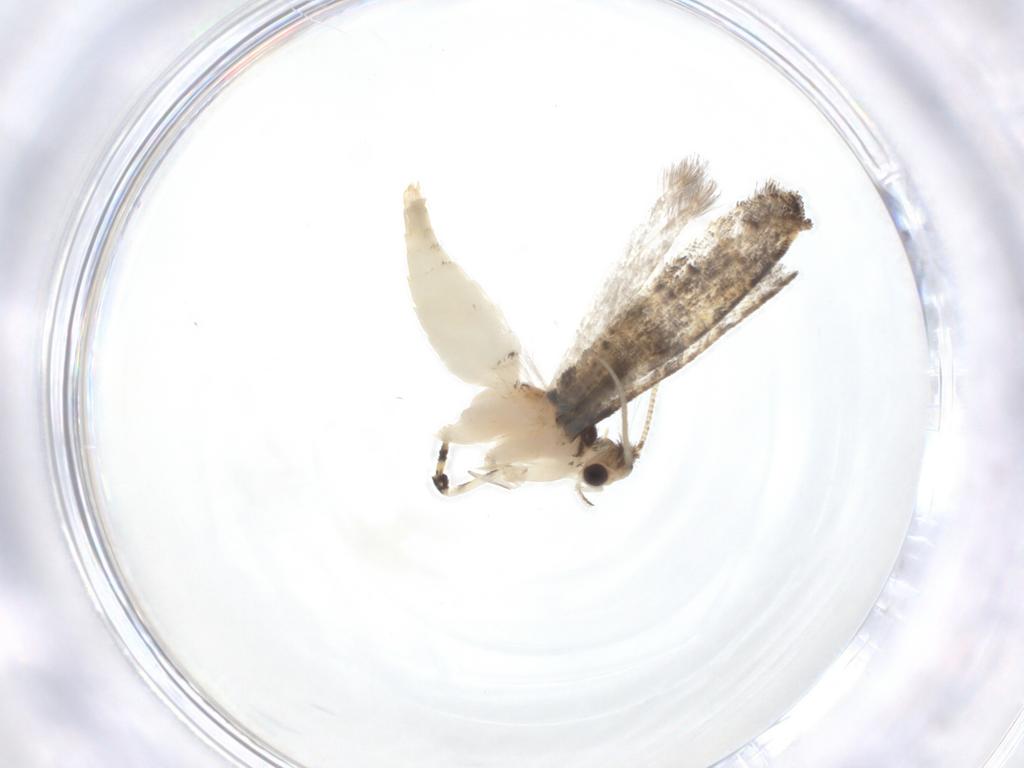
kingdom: Animalia
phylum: Arthropoda
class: Insecta
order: Lepidoptera
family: Tineidae
